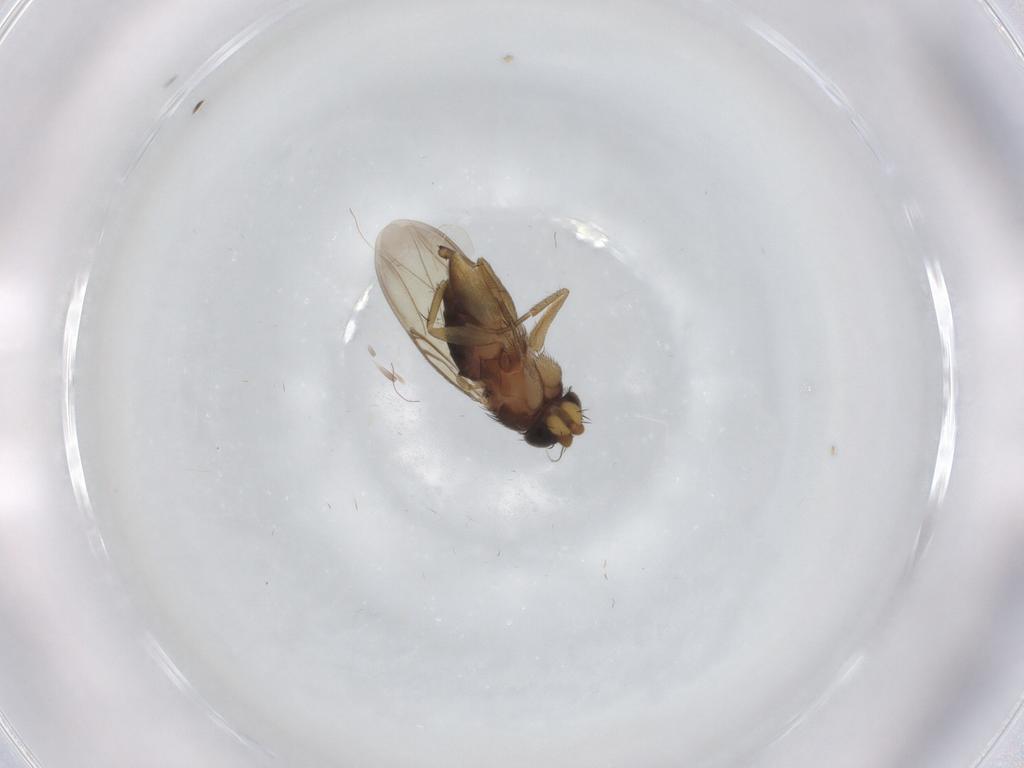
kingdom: Animalia
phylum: Arthropoda
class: Insecta
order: Diptera
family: Phoridae
